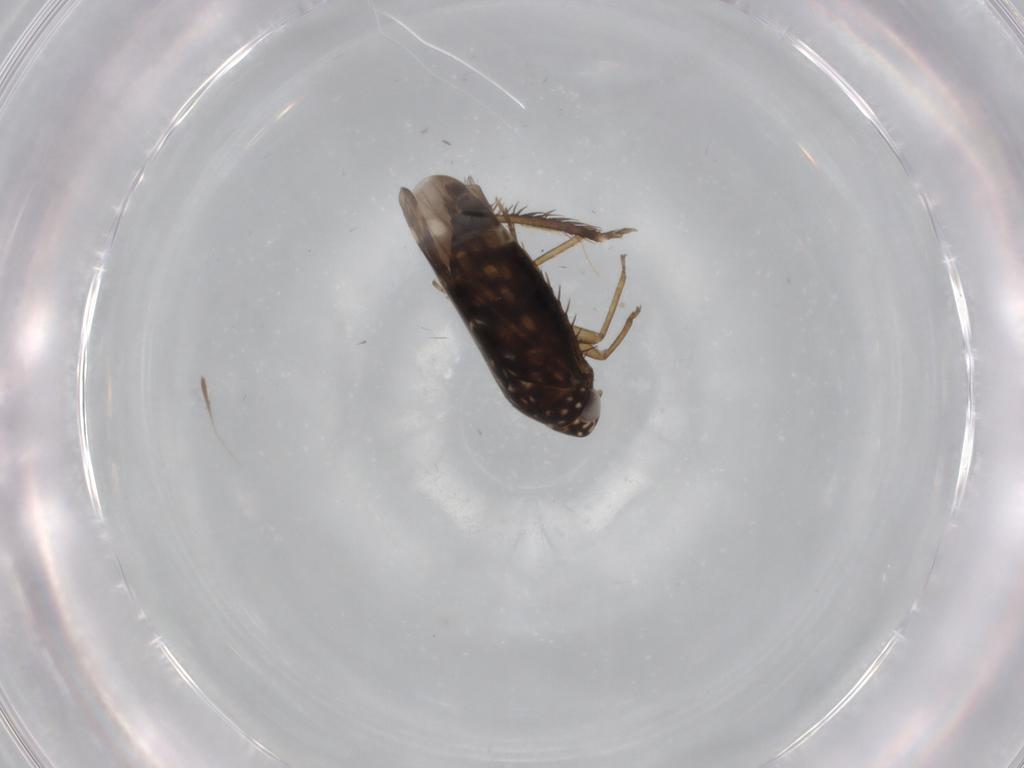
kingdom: Animalia
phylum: Arthropoda
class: Insecta
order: Hemiptera
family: Cicadellidae
